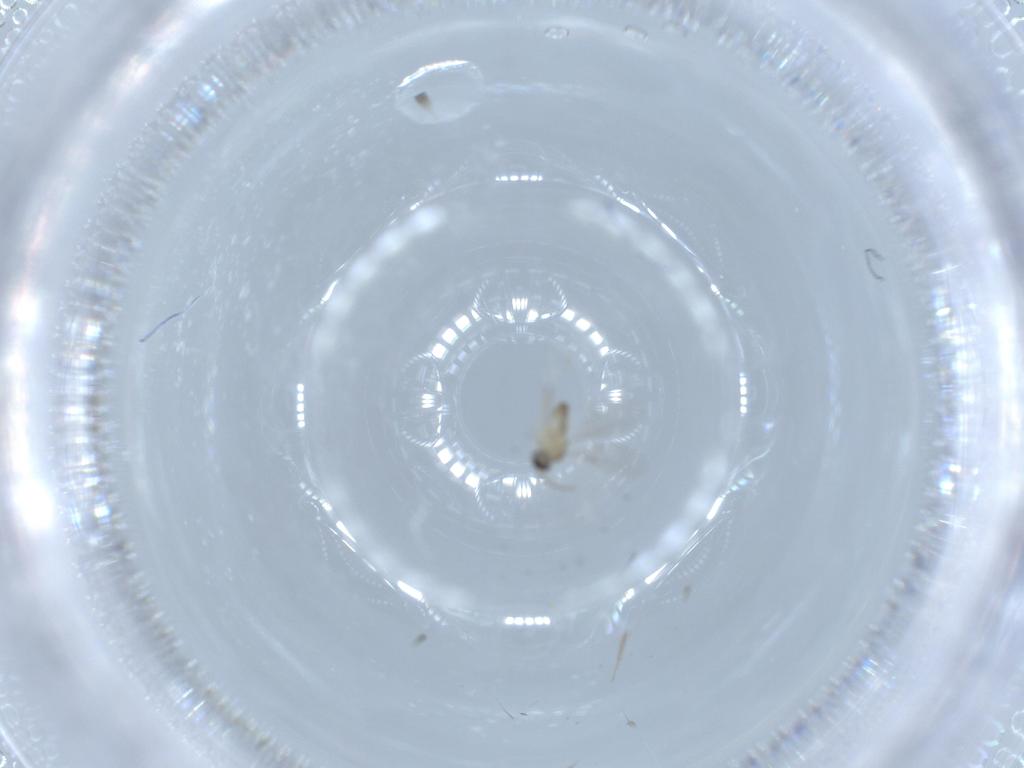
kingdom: Animalia
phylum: Arthropoda
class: Insecta
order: Diptera
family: Cecidomyiidae
